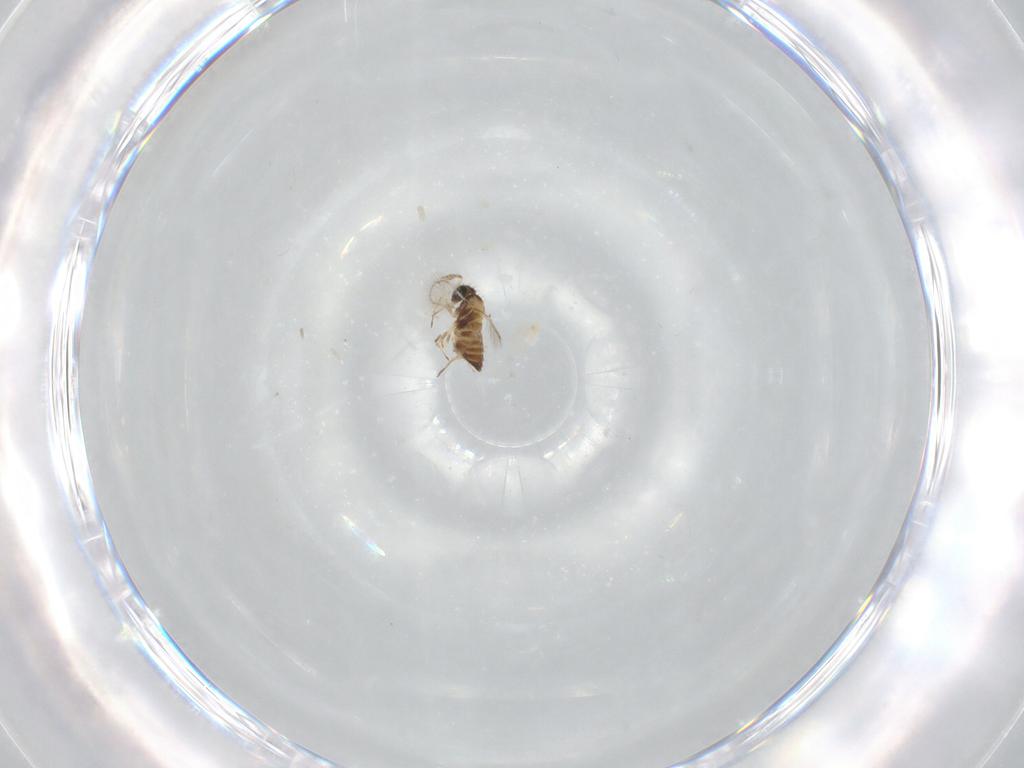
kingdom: Animalia
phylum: Arthropoda
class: Insecta
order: Hymenoptera
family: Trichogrammatidae
